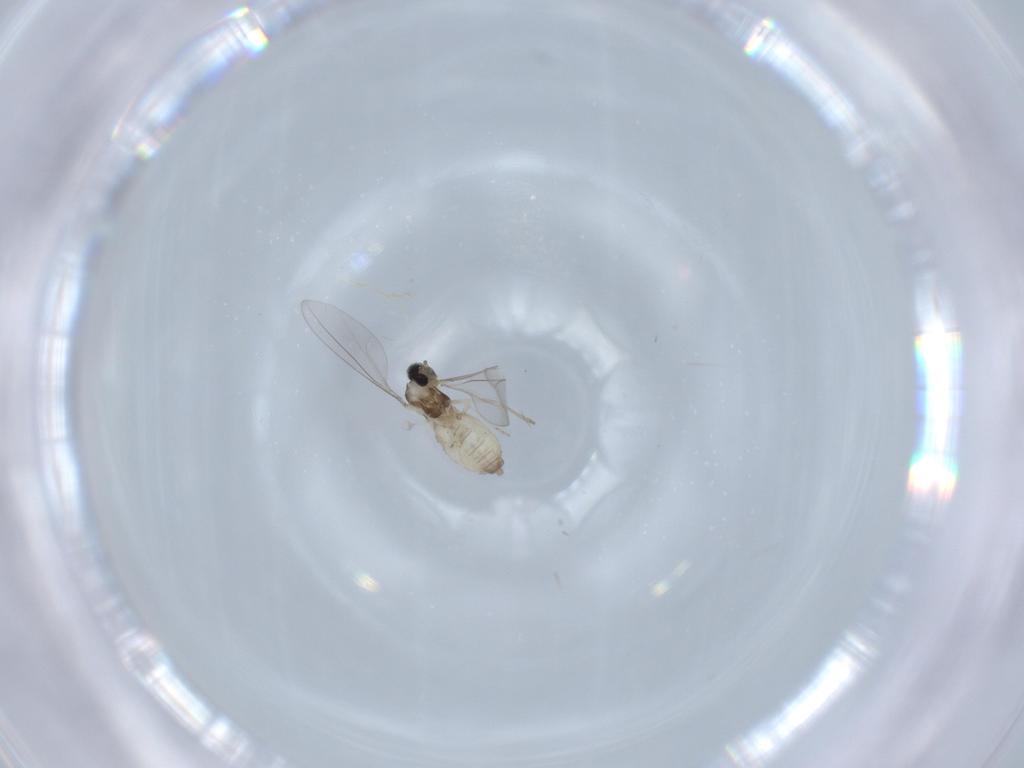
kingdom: Animalia
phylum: Arthropoda
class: Insecta
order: Diptera
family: Cecidomyiidae
